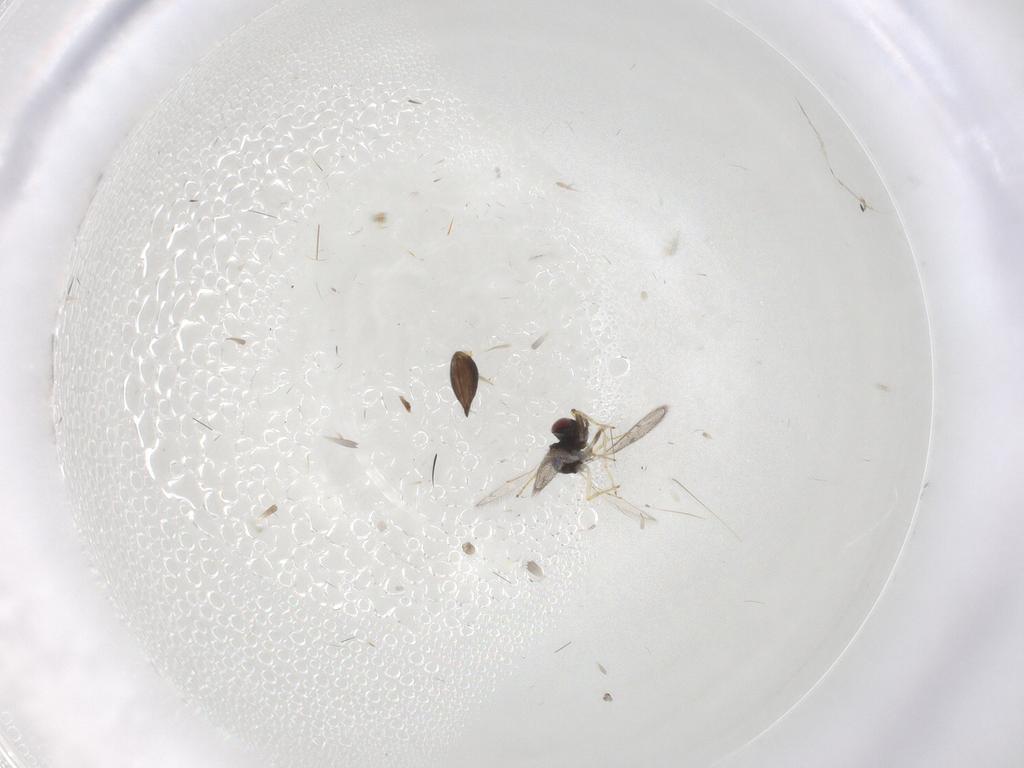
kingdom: Animalia
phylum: Arthropoda
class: Insecta
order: Hymenoptera
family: Eulophidae
